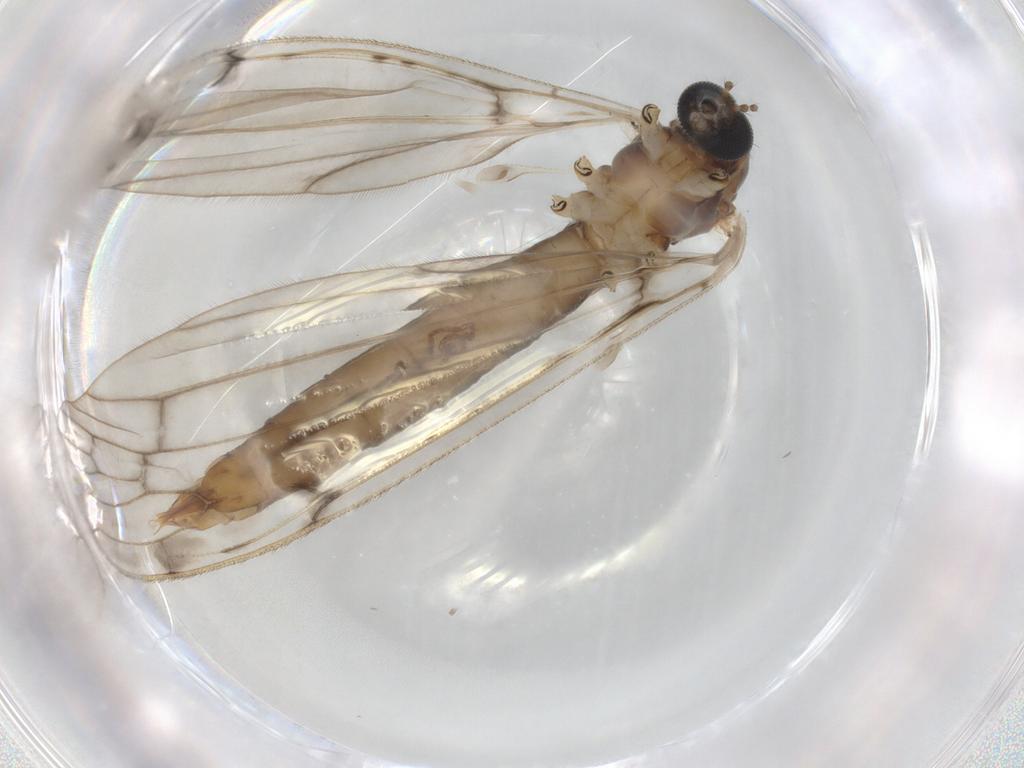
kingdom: Animalia
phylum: Arthropoda
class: Insecta
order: Diptera
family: Limoniidae
